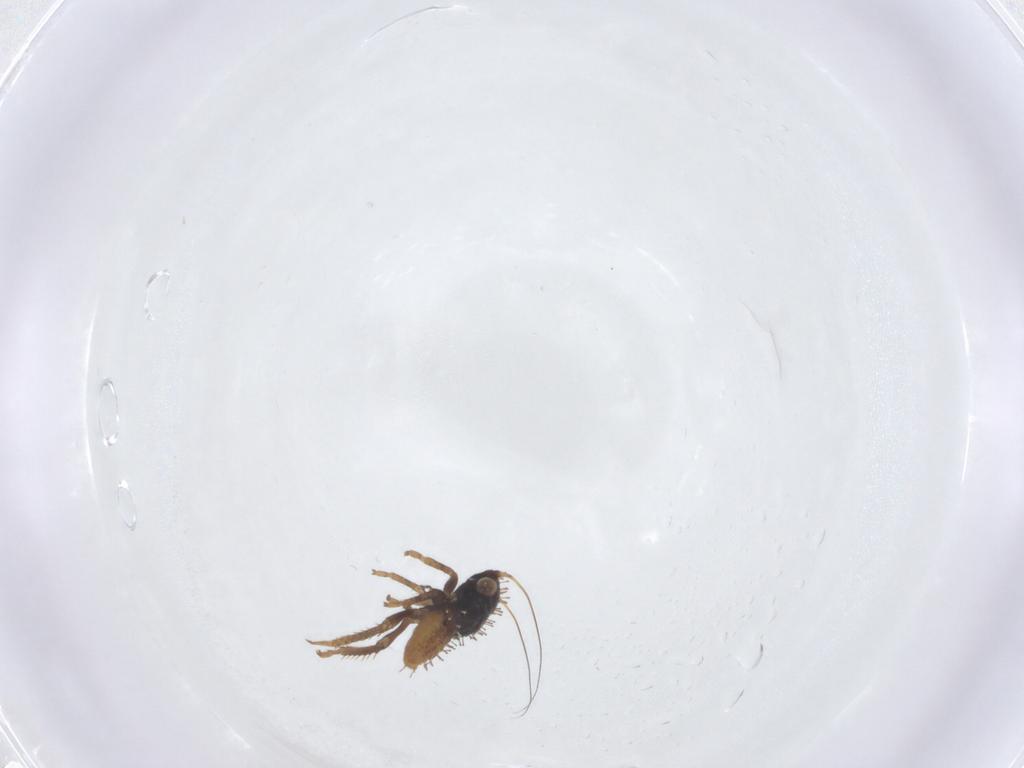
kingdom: Animalia
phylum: Arthropoda
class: Insecta
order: Hemiptera
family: Cicadellidae
